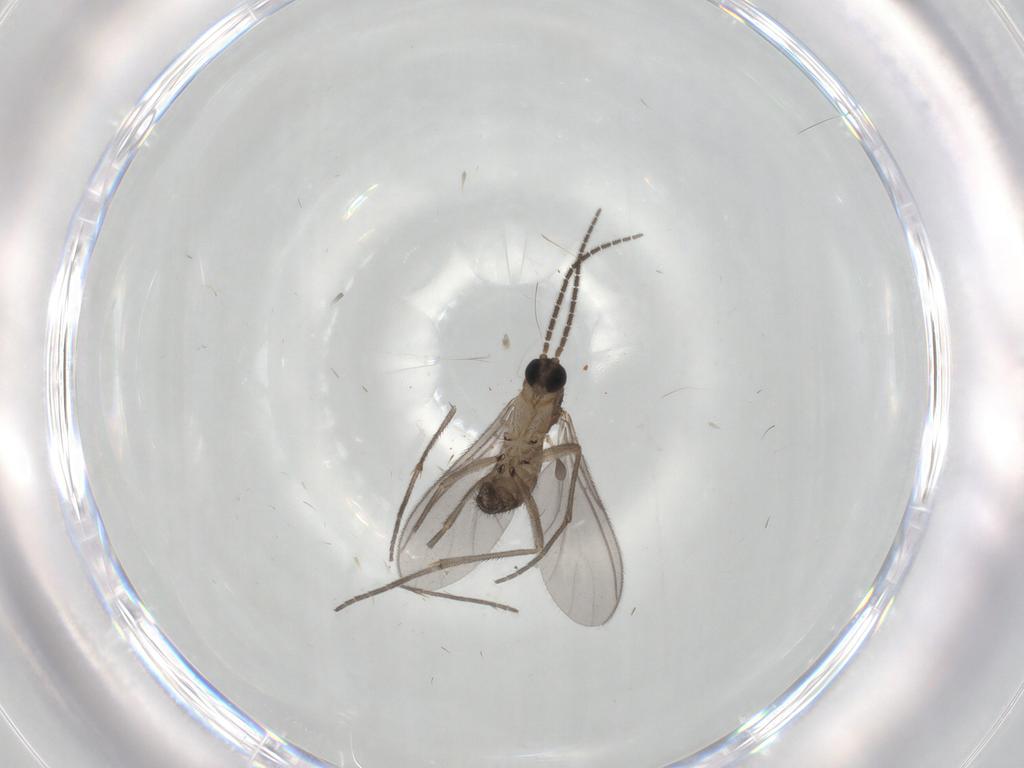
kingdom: Animalia
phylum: Arthropoda
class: Insecta
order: Diptera
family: Sciaridae
